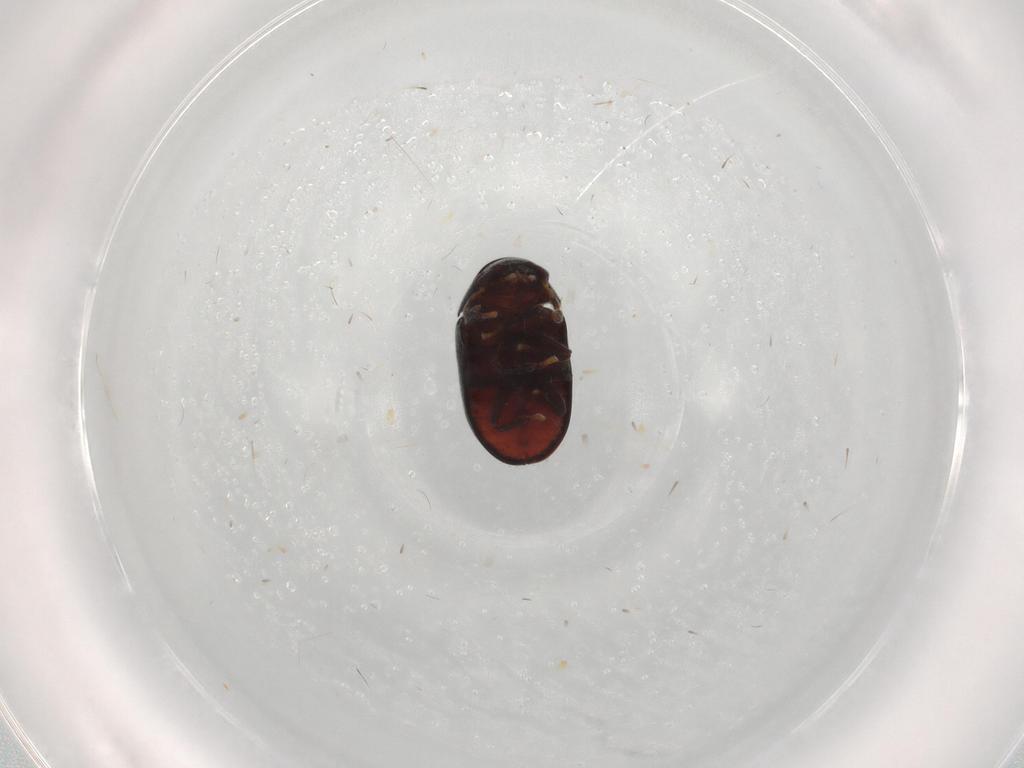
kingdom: Animalia
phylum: Arthropoda
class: Insecta
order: Coleoptera
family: Ptinidae
